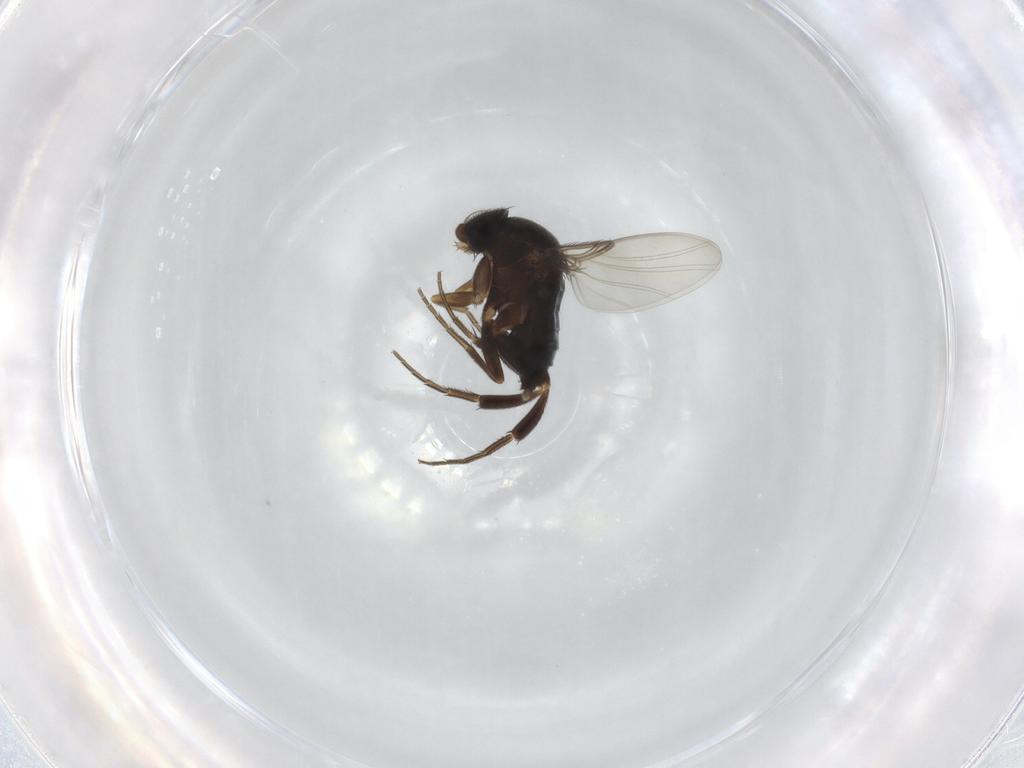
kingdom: Animalia
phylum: Arthropoda
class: Insecta
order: Diptera
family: Phoridae
